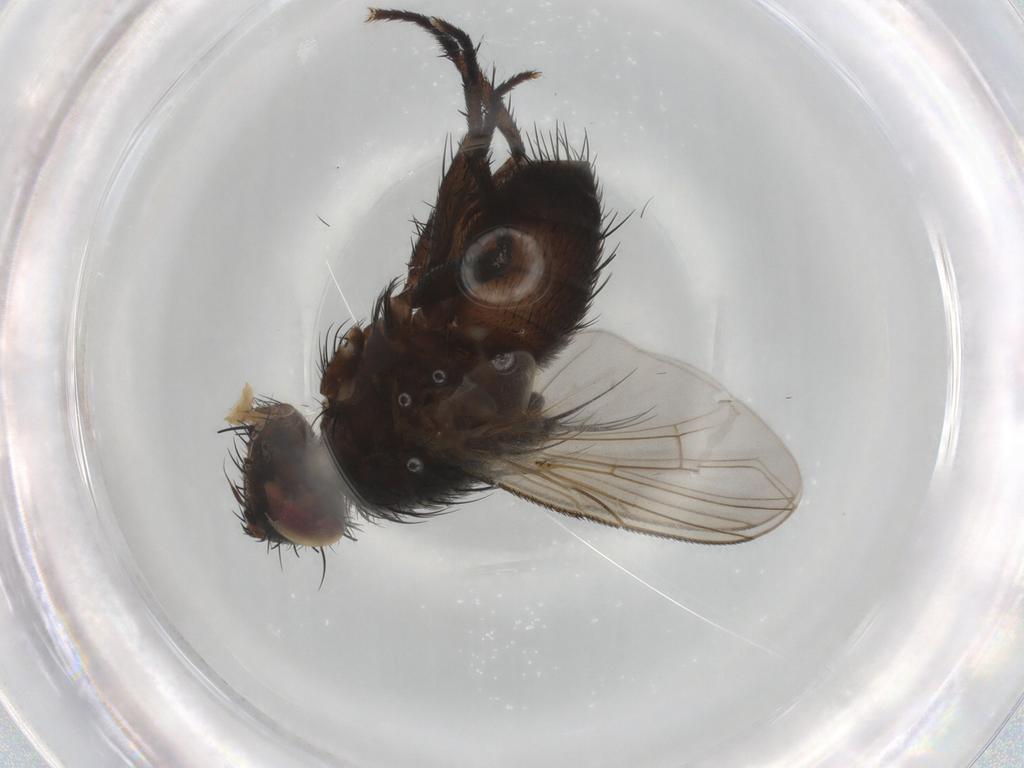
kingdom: Animalia
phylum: Arthropoda
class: Insecta
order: Diptera
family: Tachinidae
